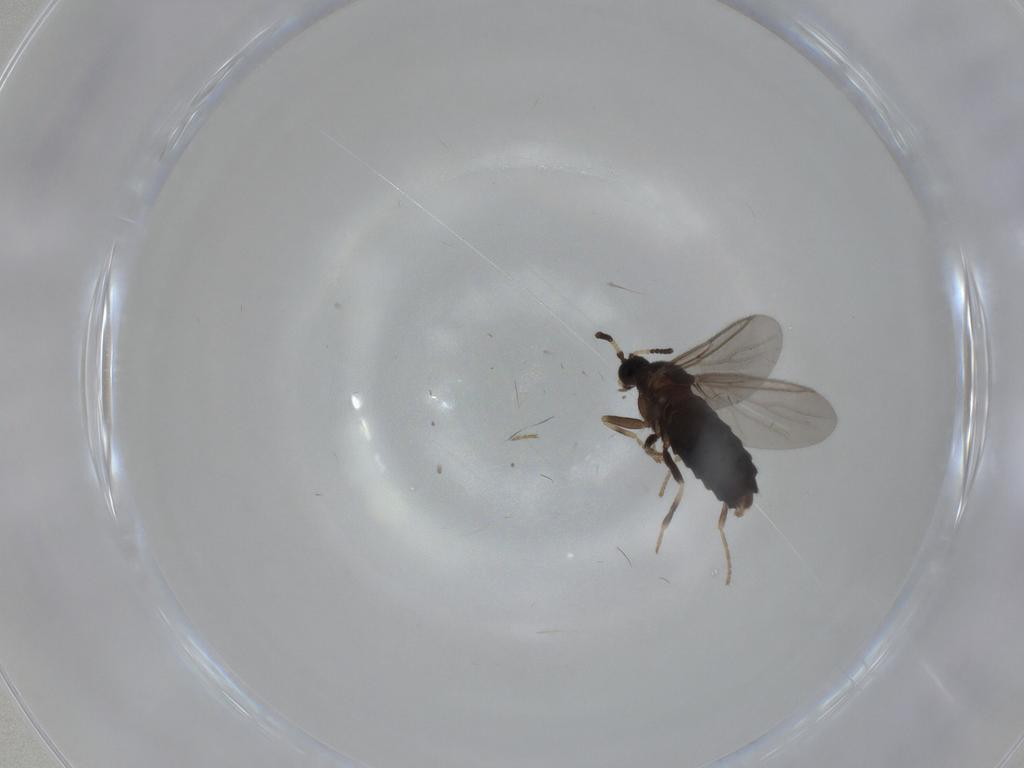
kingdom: Animalia
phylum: Arthropoda
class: Insecta
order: Diptera
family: Scatopsidae
